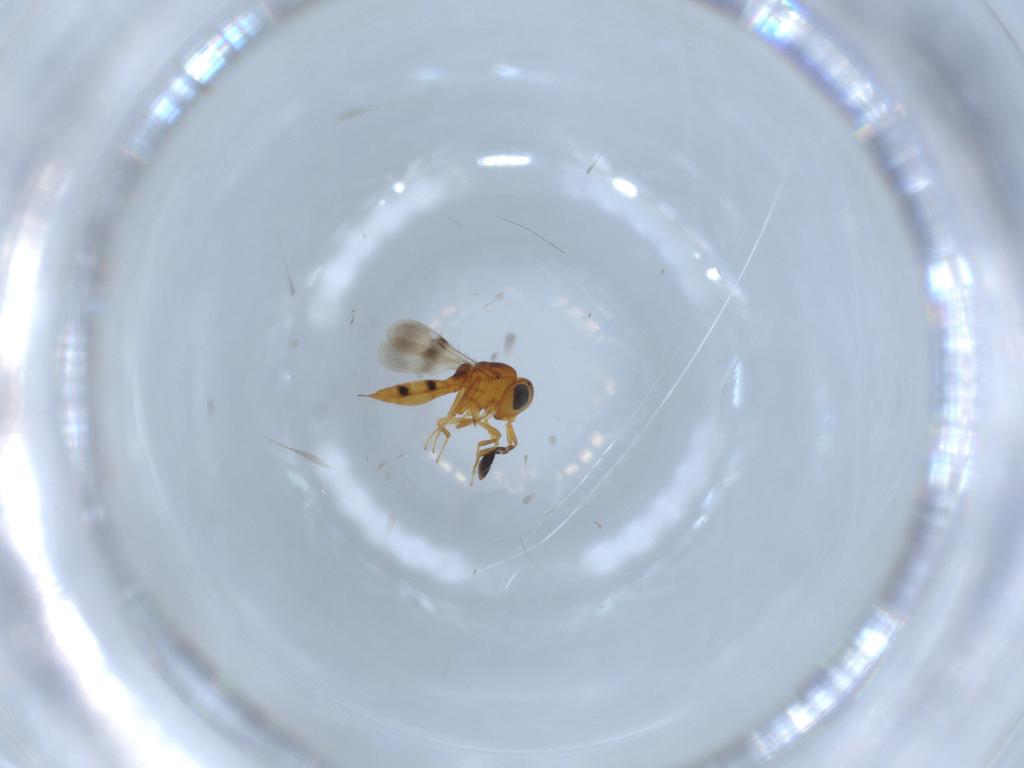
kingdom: Animalia
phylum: Arthropoda
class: Insecta
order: Hymenoptera
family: Scelionidae
